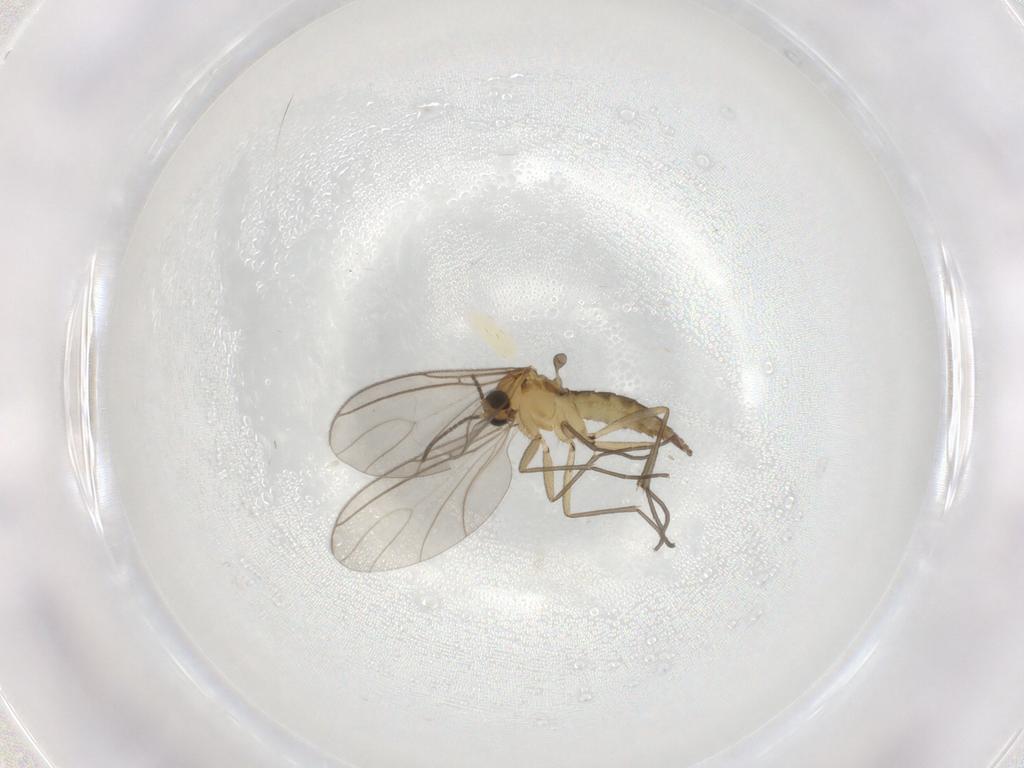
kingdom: Animalia
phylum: Arthropoda
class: Insecta
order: Diptera
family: Sciaridae
